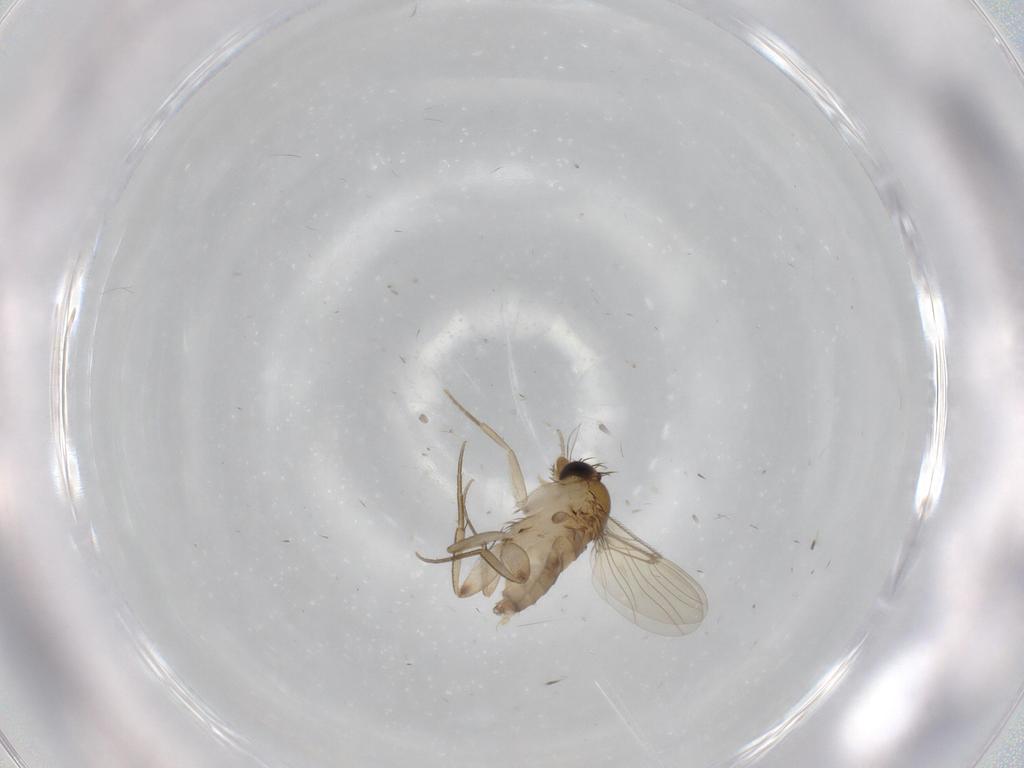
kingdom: Animalia
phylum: Arthropoda
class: Insecta
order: Diptera
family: Phoridae
